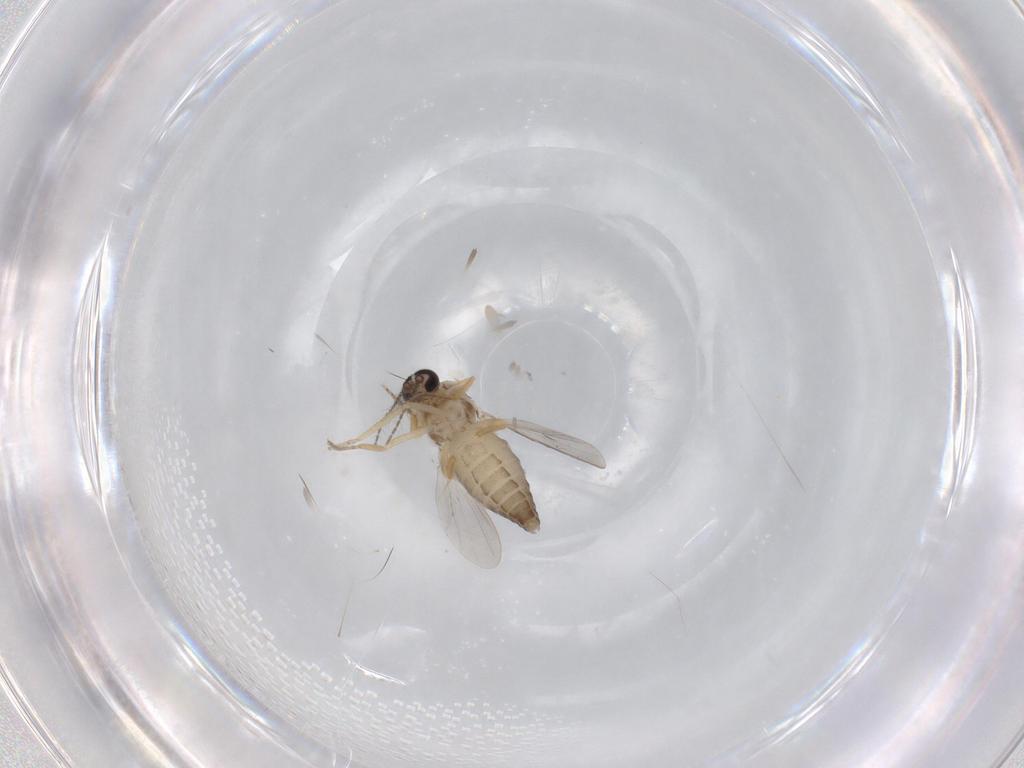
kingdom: Animalia
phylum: Arthropoda
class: Insecta
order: Diptera
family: Ceratopogonidae
